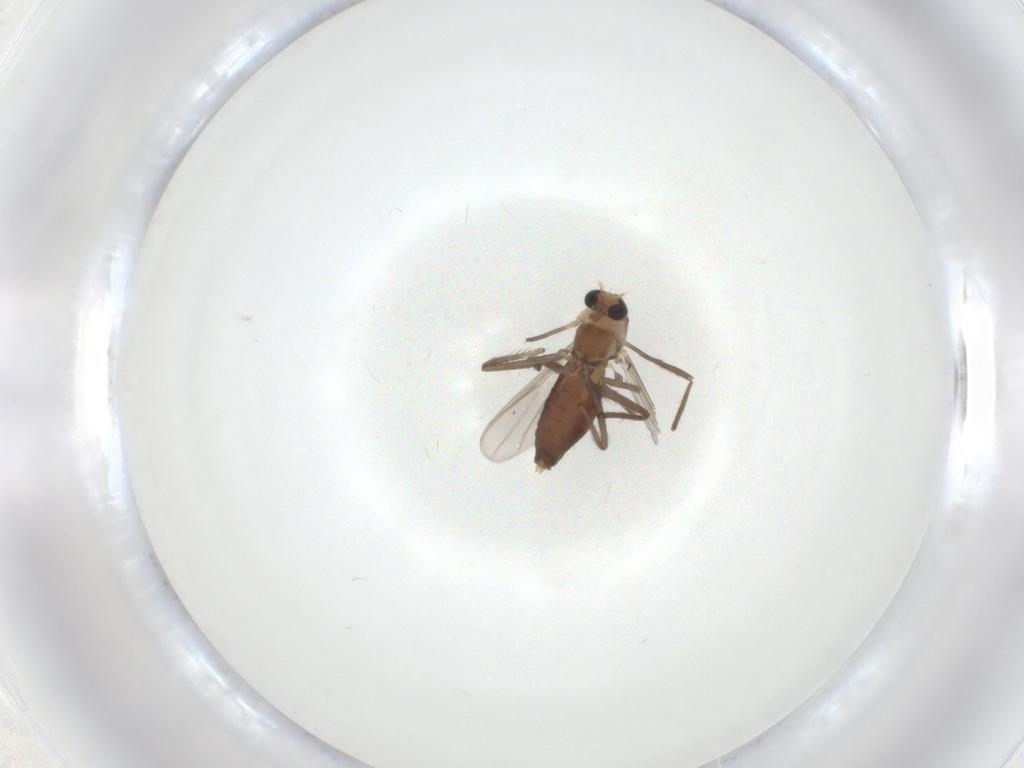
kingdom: Animalia
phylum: Arthropoda
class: Insecta
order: Diptera
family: Chironomidae
